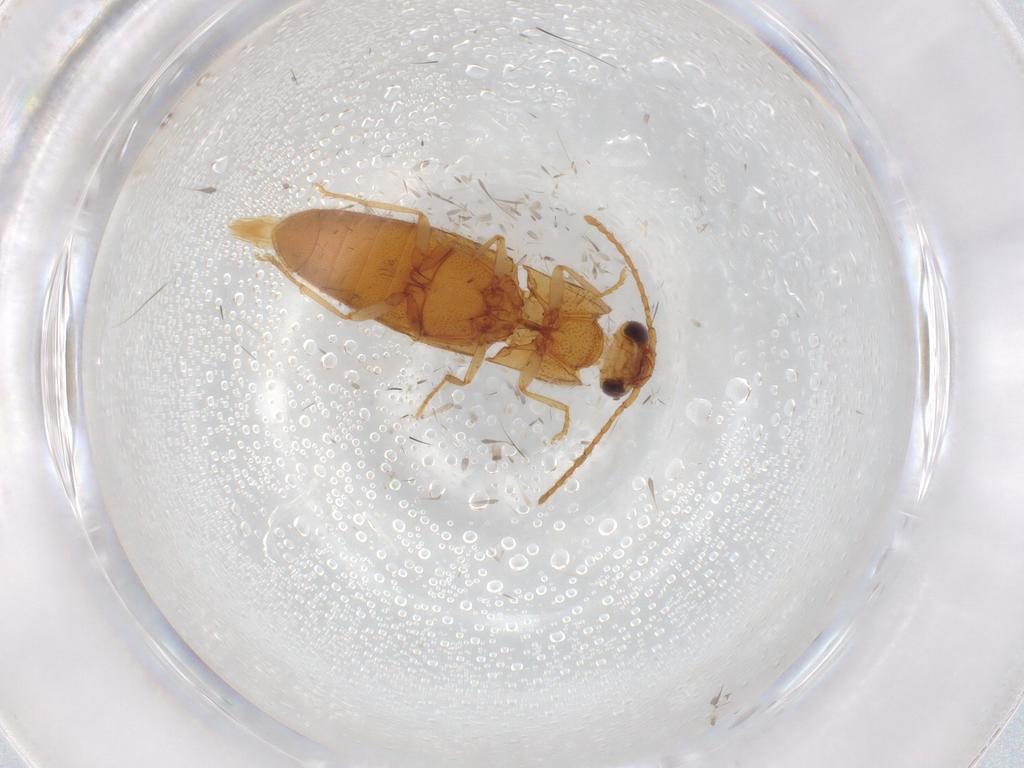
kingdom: Animalia
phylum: Arthropoda
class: Insecta
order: Coleoptera
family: Elateridae
